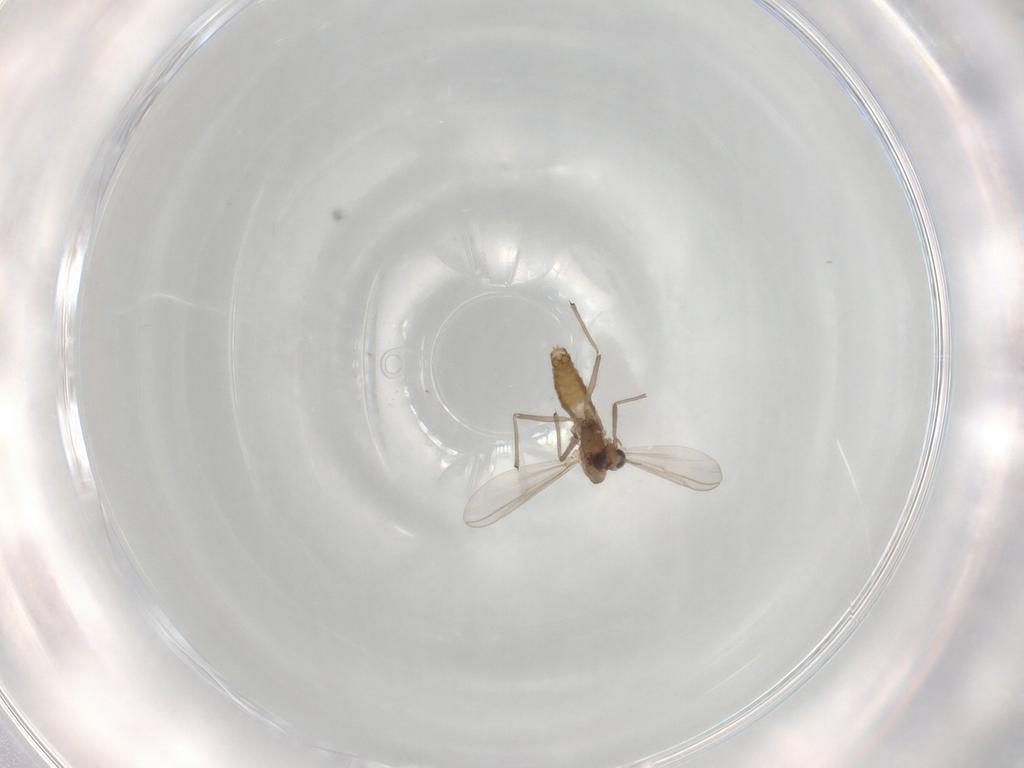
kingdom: Animalia
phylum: Arthropoda
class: Insecta
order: Diptera
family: Chironomidae
